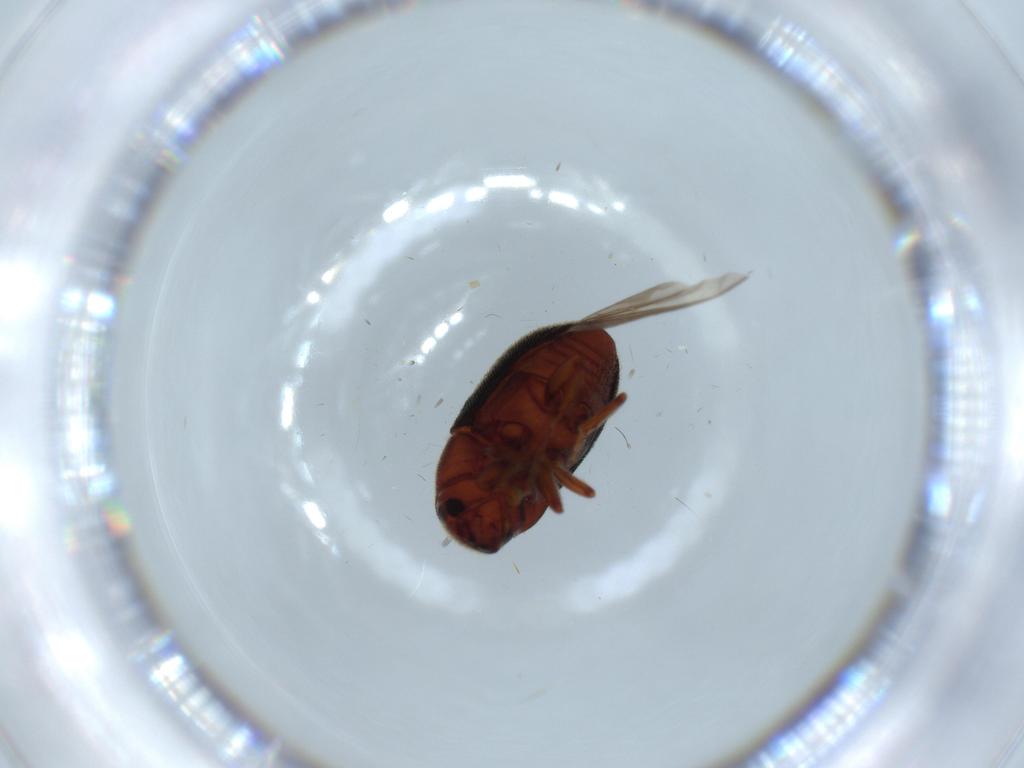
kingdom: Animalia
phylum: Arthropoda
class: Insecta
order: Coleoptera
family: Curculionidae
